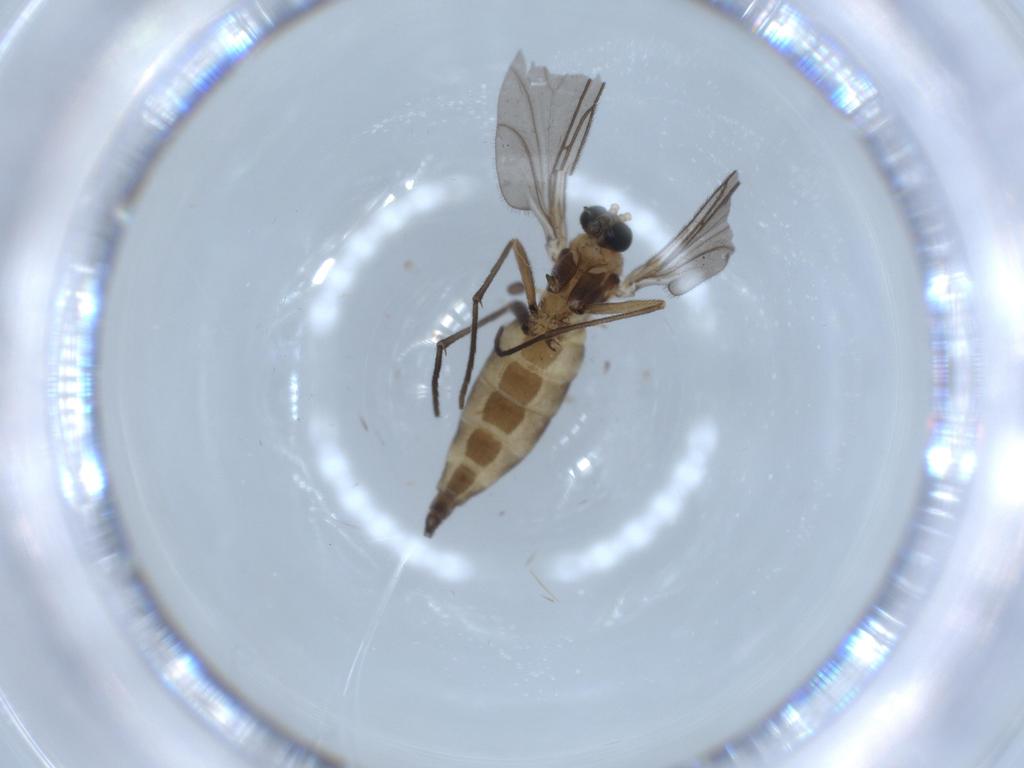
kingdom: Animalia
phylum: Arthropoda
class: Insecta
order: Diptera
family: Sciaridae
